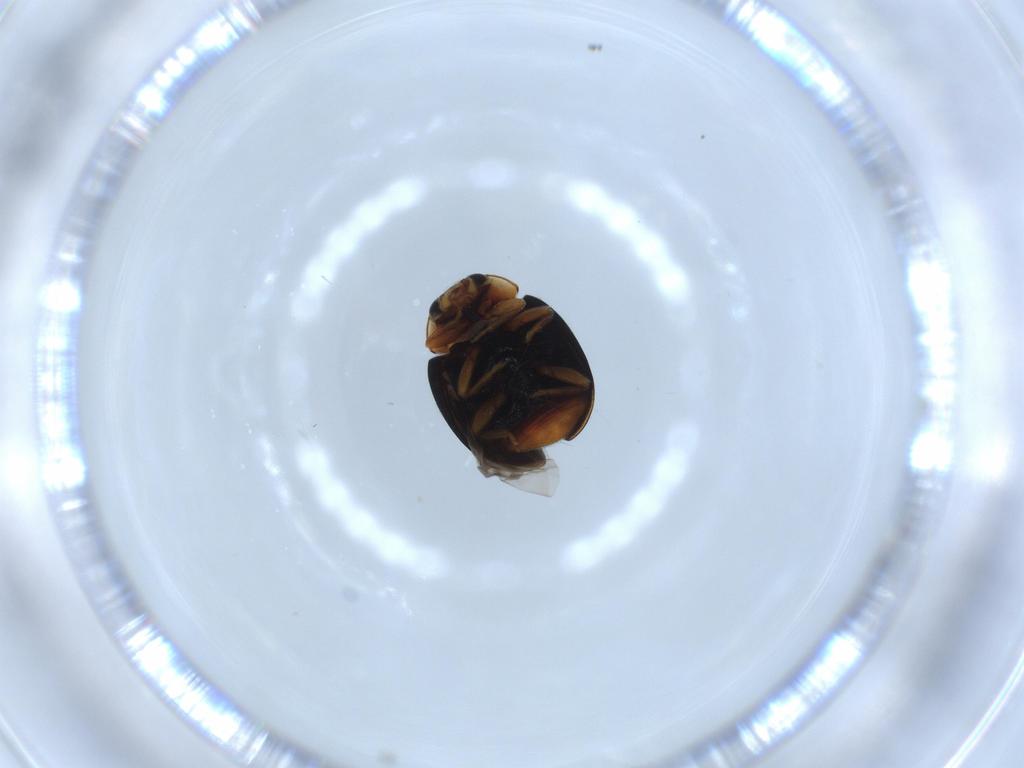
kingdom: Animalia
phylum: Arthropoda
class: Insecta
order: Coleoptera
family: Coccinellidae
